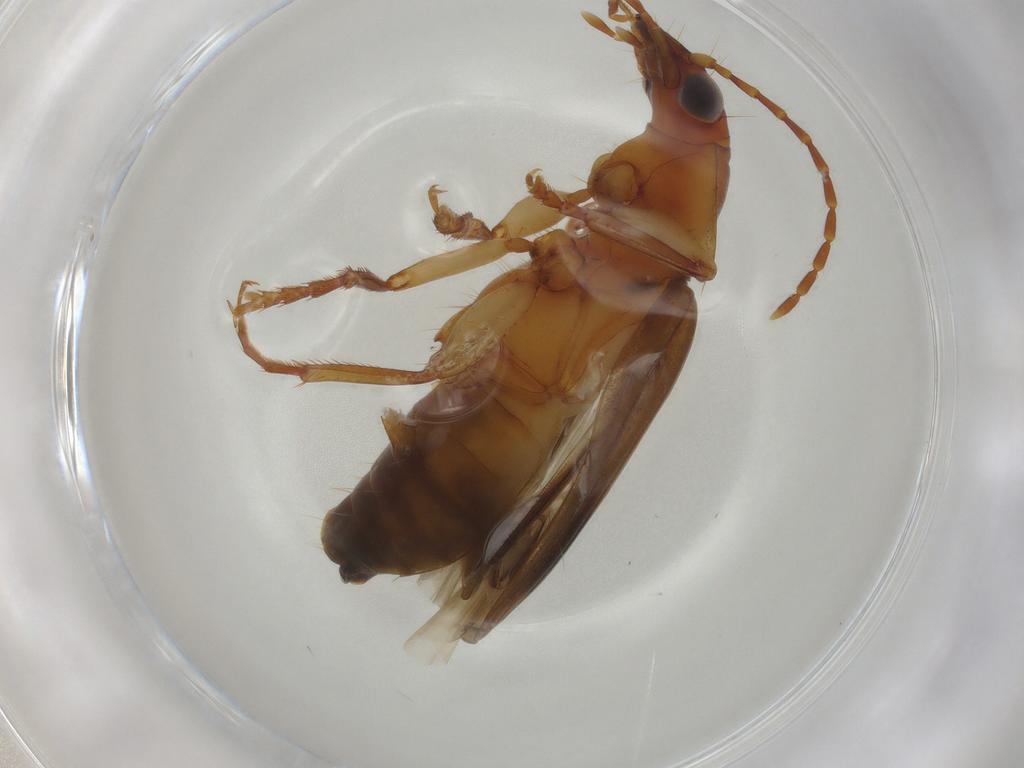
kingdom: Animalia
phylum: Arthropoda
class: Insecta
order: Coleoptera
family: Carabidae
